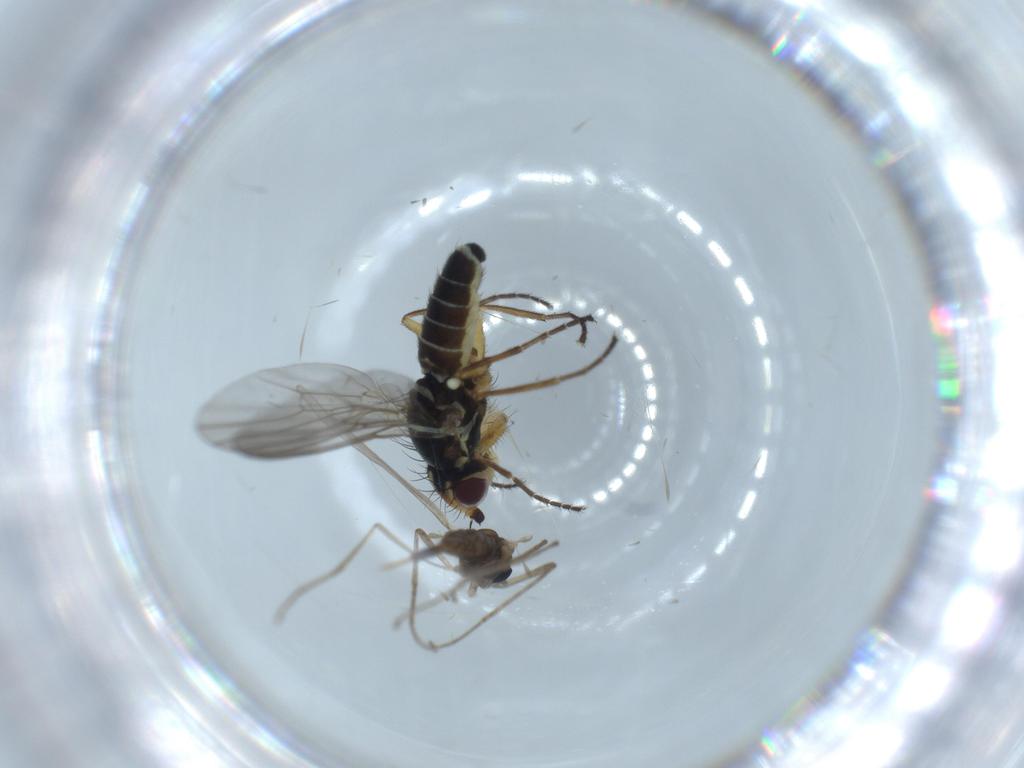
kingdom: Animalia
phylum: Arthropoda
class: Insecta
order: Diptera
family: Agromyzidae
